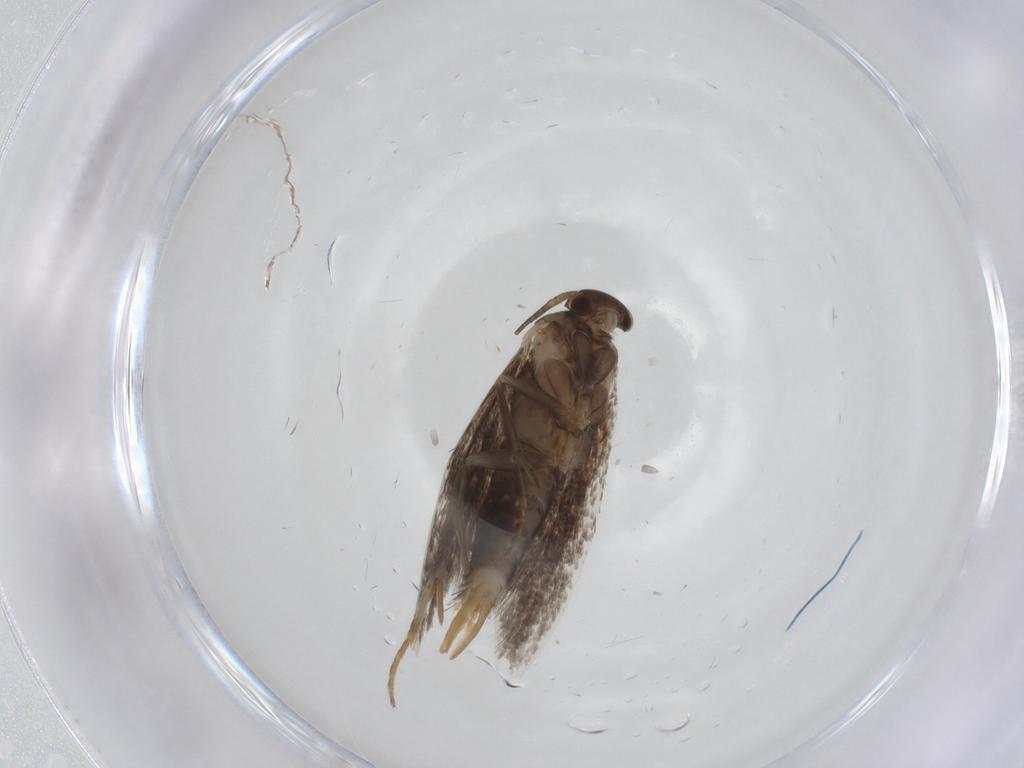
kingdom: Animalia
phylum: Arthropoda
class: Insecta
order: Lepidoptera
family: Elachistidae
